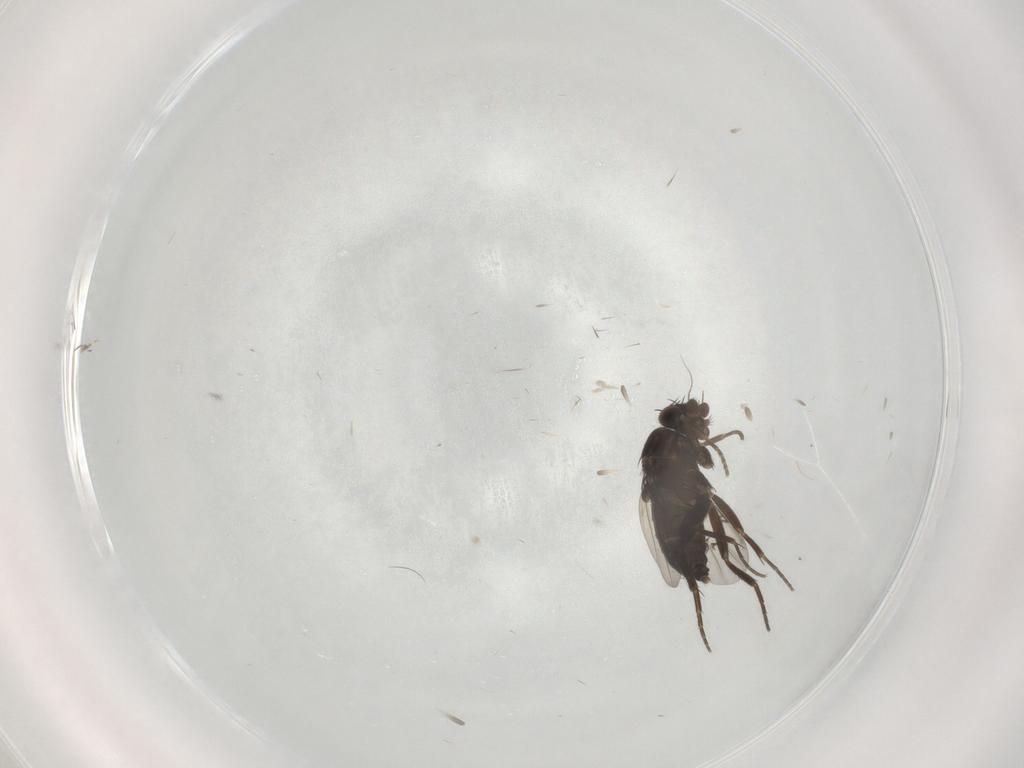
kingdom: Animalia
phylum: Arthropoda
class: Insecta
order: Diptera
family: Phoridae
